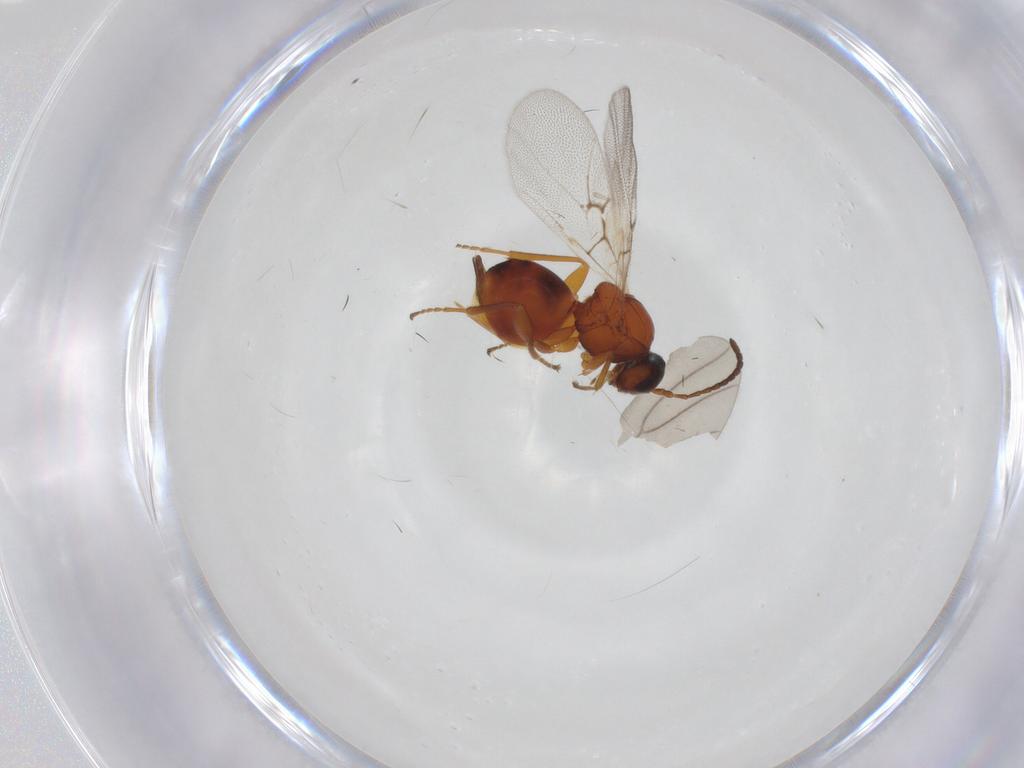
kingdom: Animalia
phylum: Arthropoda
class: Insecta
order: Hymenoptera
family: Cynipidae
